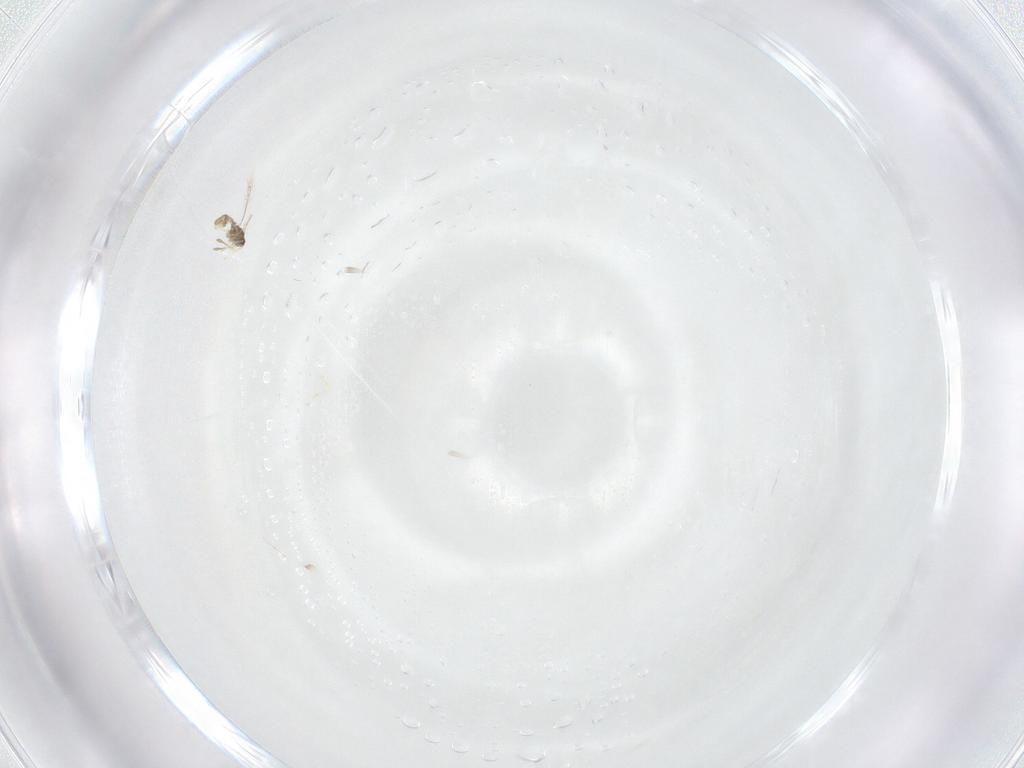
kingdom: Animalia
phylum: Arthropoda
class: Insecta
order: Hymenoptera
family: Mymaridae
